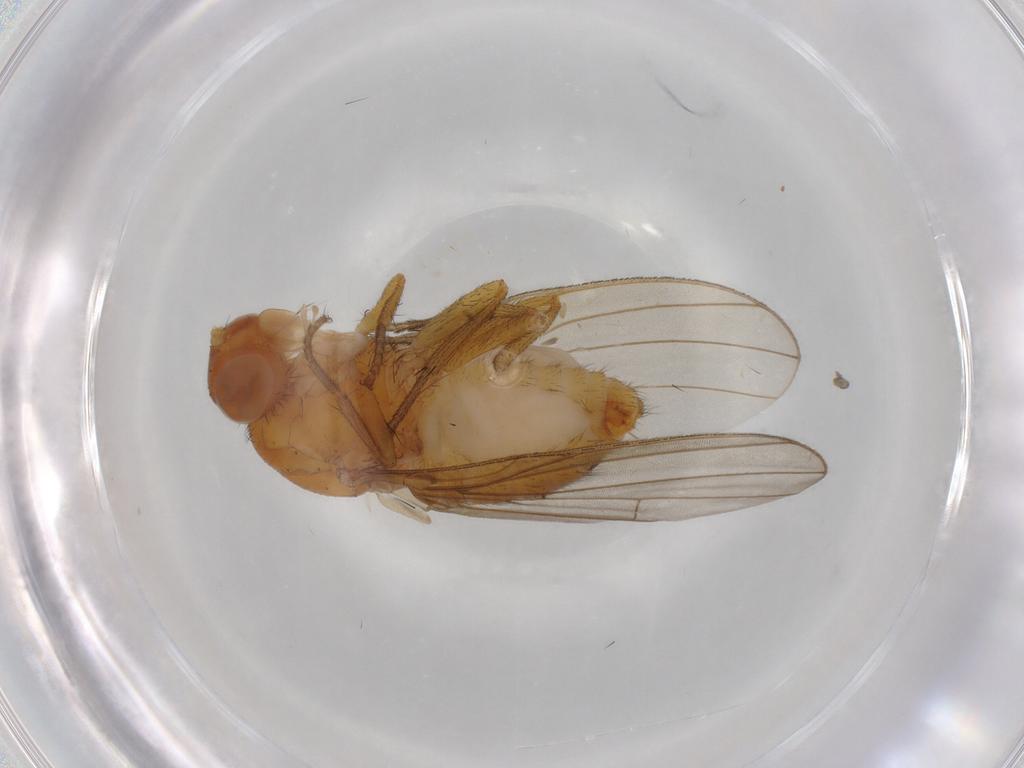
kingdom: Animalia
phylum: Arthropoda
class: Insecta
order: Diptera
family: Dolichopodidae
